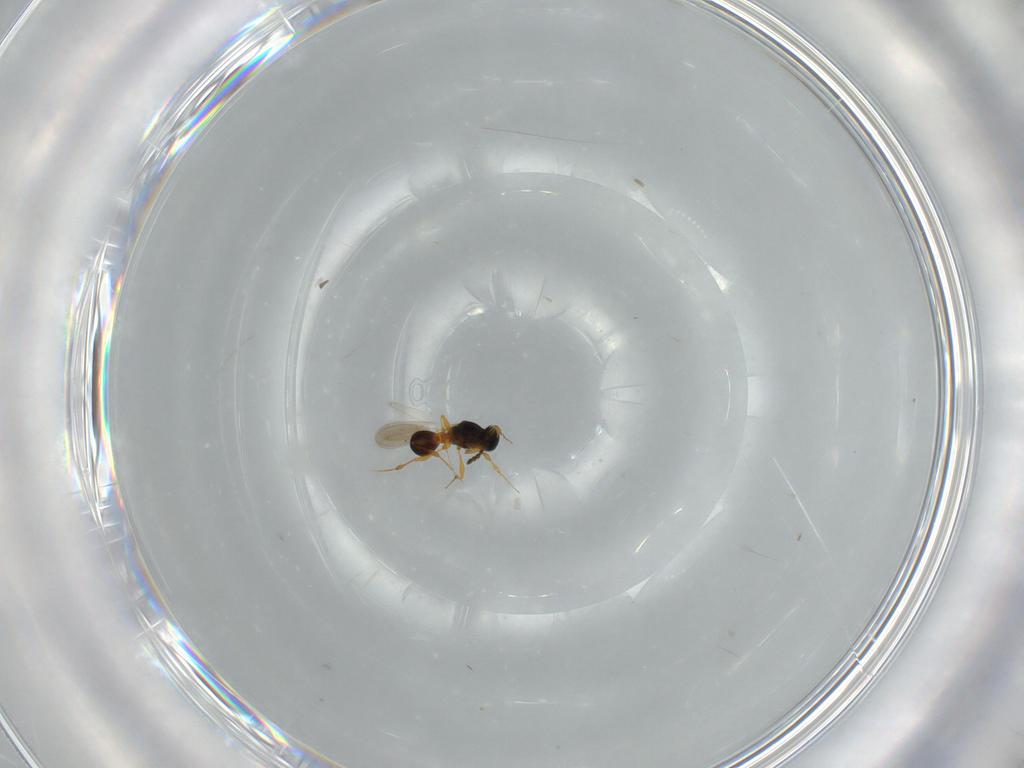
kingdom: Animalia
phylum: Arthropoda
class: Insecta
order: Hymenoptera
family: Platygastridae
